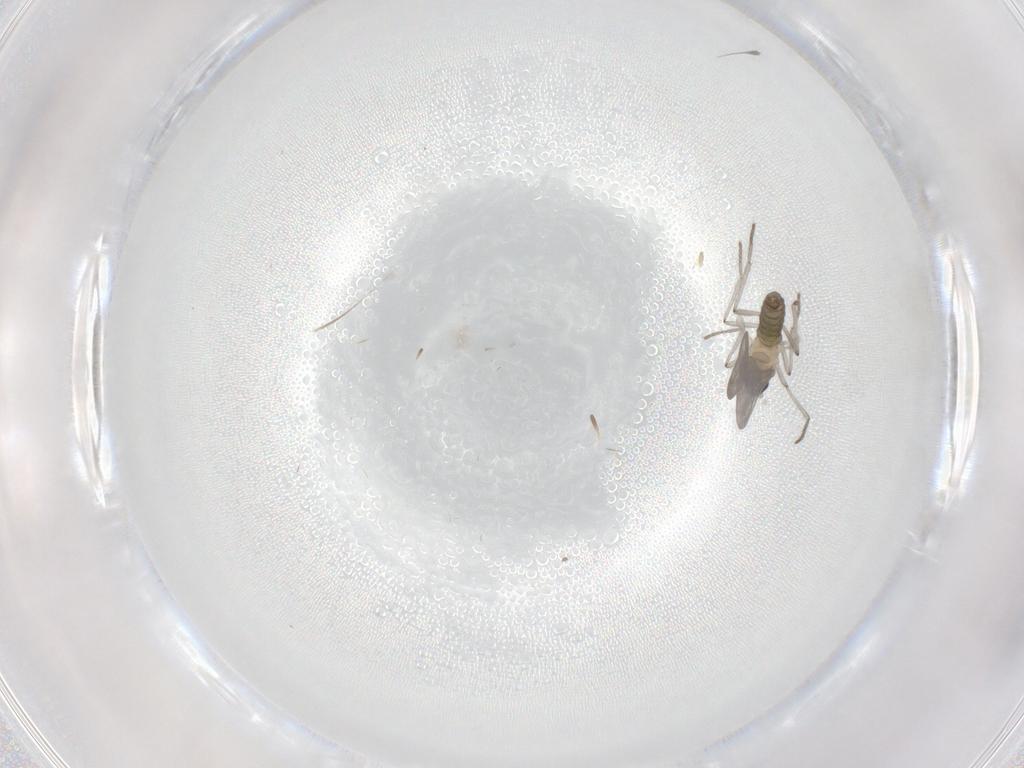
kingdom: Animalia
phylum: Arthropoda
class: Insecta
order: Diptera
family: Cecidomyiidae
